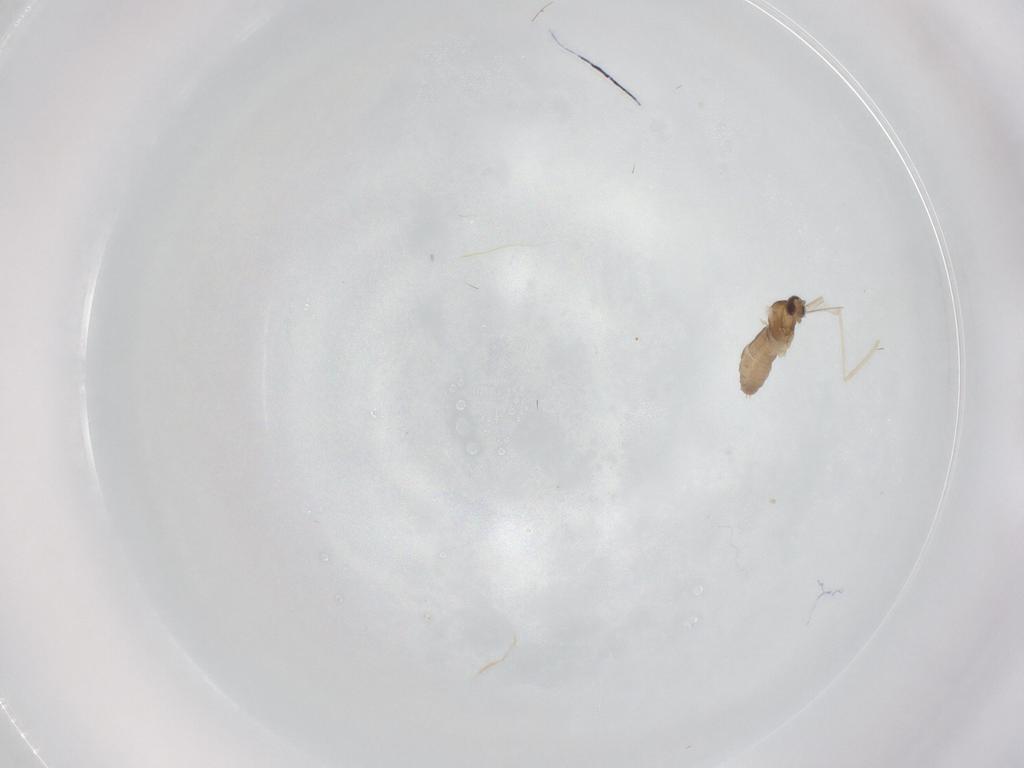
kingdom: Animalia
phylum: Arthropoda
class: Insecta
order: Diptera
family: Cecidomyiidae
